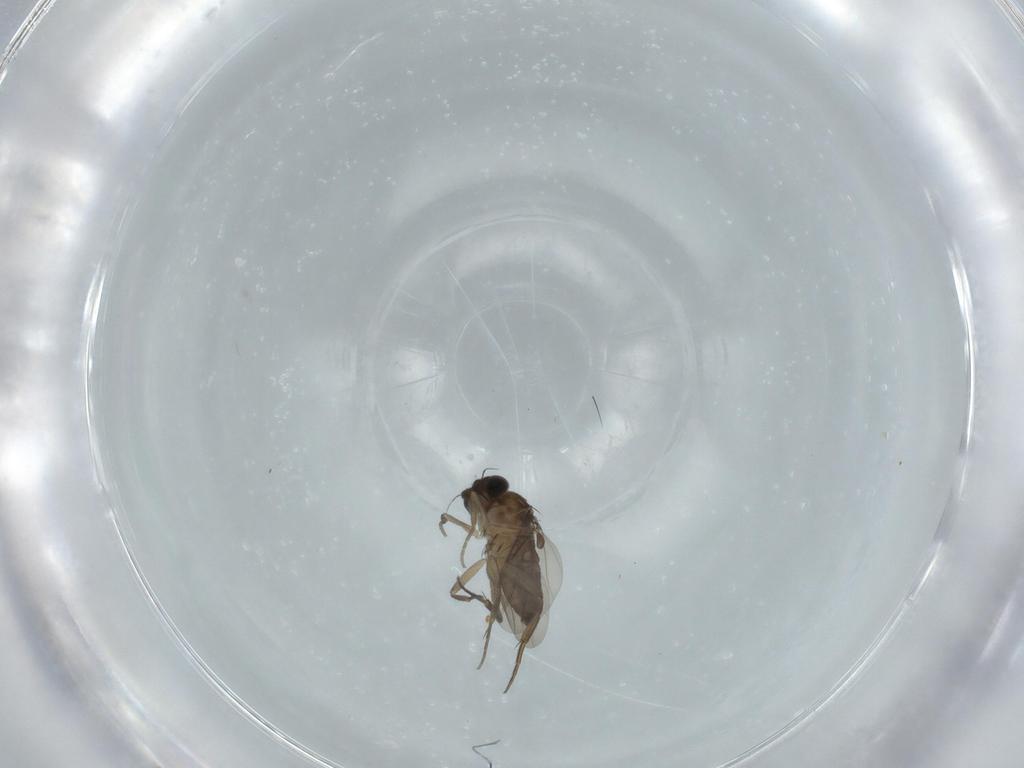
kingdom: Animalia
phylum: Arthropoda
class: Insecta
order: Diptera
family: Phoridae
